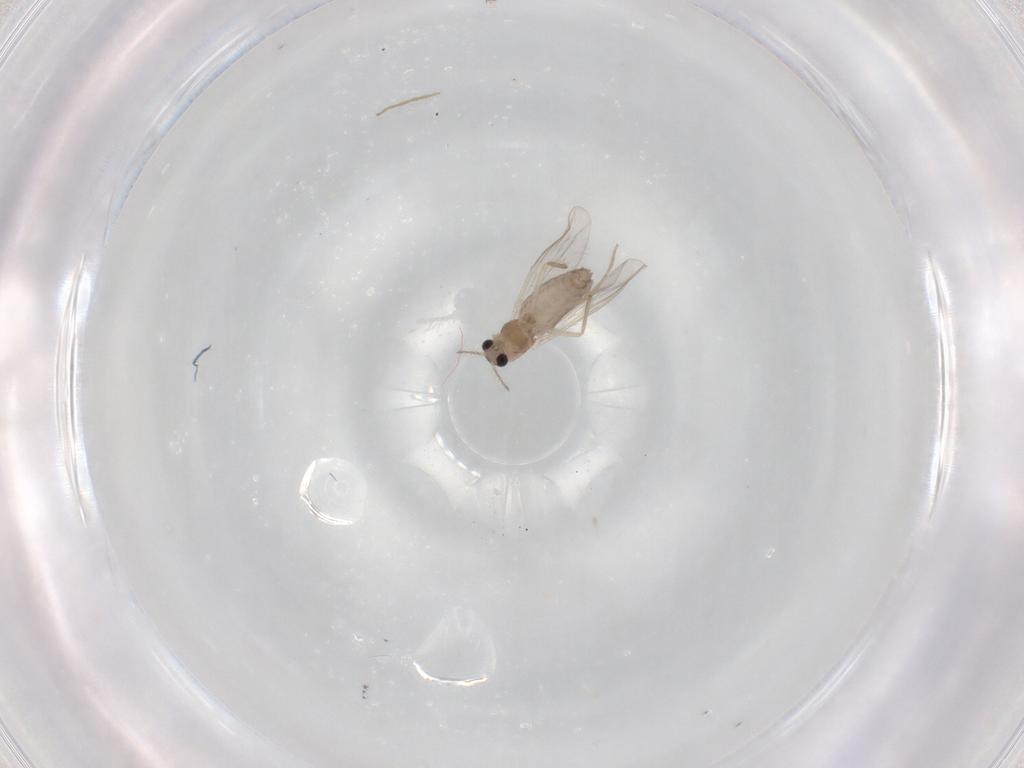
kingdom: Animalia
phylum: Arthropoda
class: Insecta
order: Diptera
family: Chironomidae
